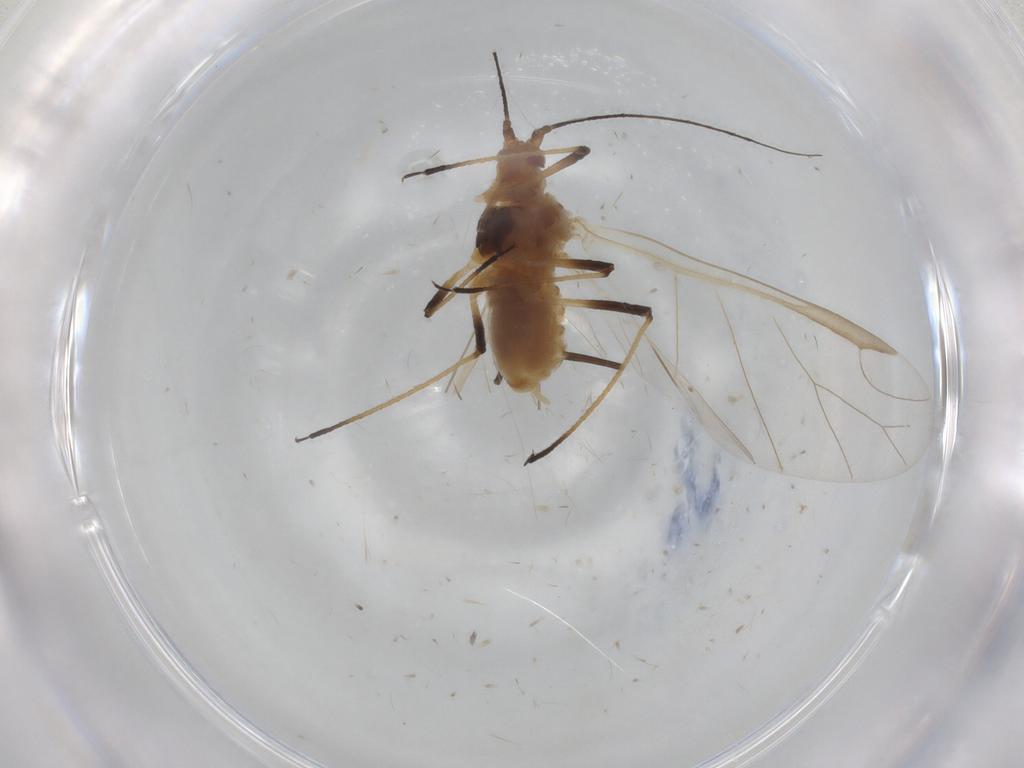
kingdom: Animalia
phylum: Arthropoda
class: Insecta
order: Hemiptera
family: Aphididae
